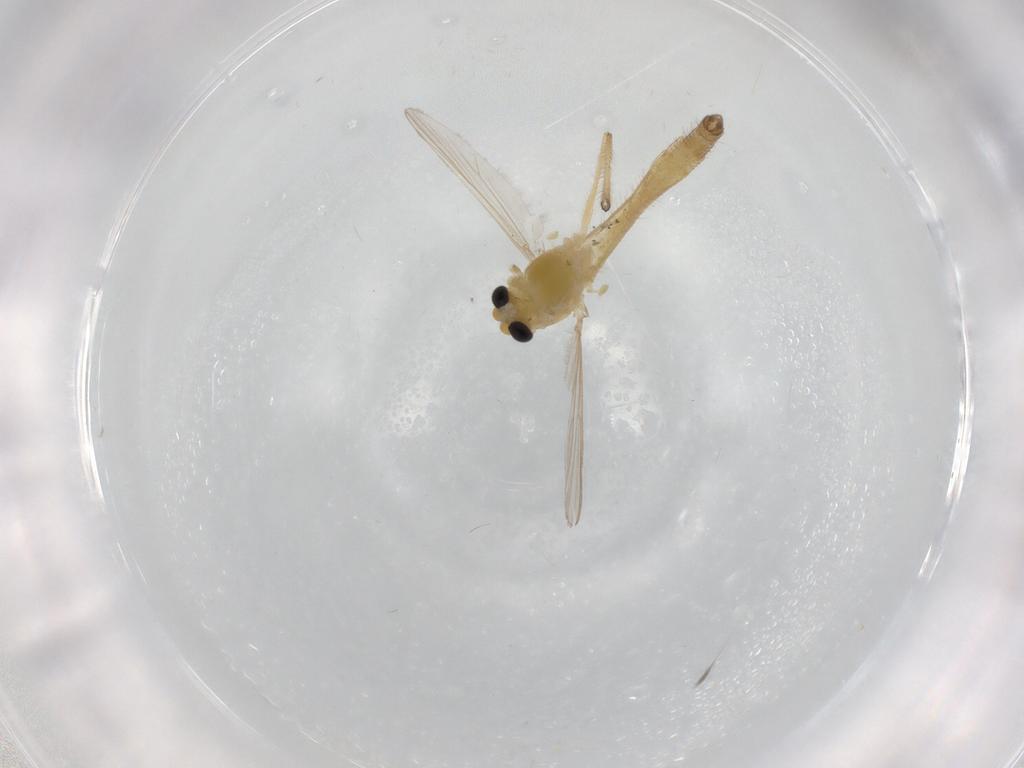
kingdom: Animalia
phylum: Arthropoda
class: Insecta
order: Diptera
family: Chironomidae
